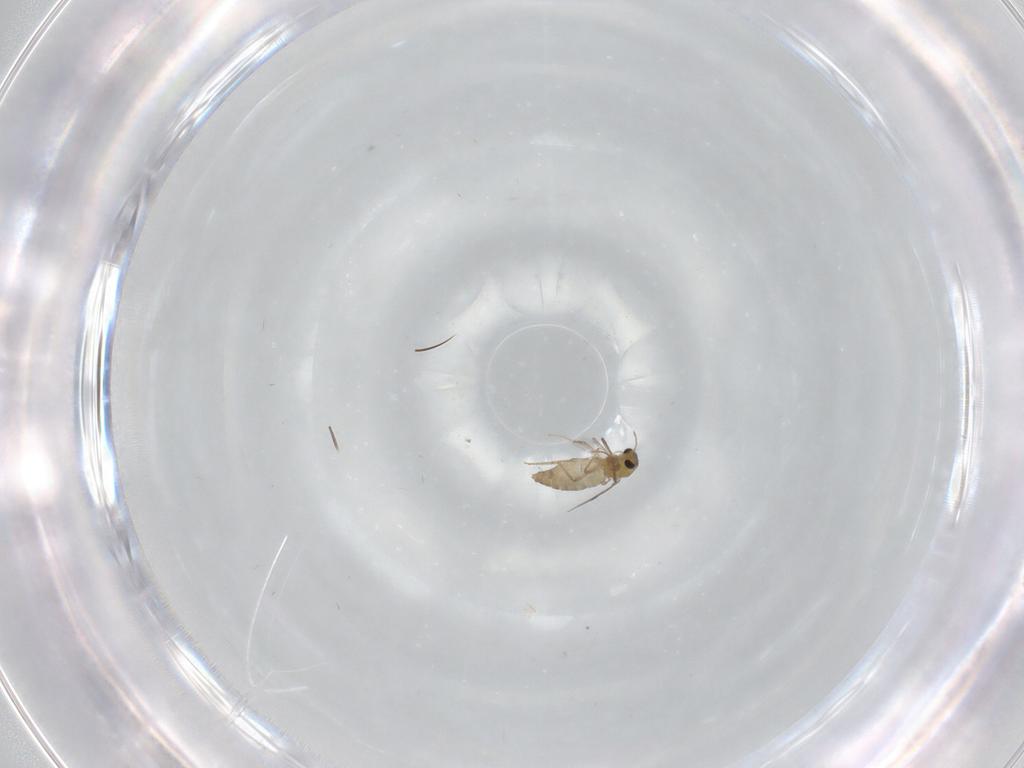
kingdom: Animalia
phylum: Arthropoda
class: Insecta
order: Diptera
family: Chironomidae
